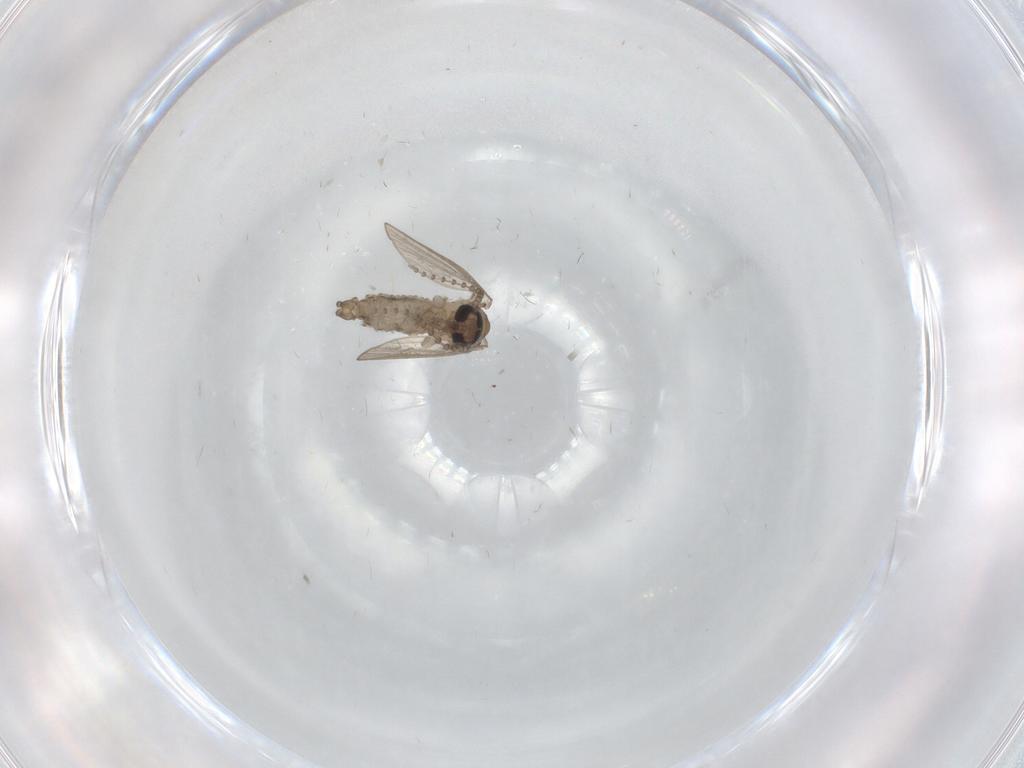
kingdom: Animalia
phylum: Arthropoda
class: Insecta
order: Diptera
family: Psychodidae
